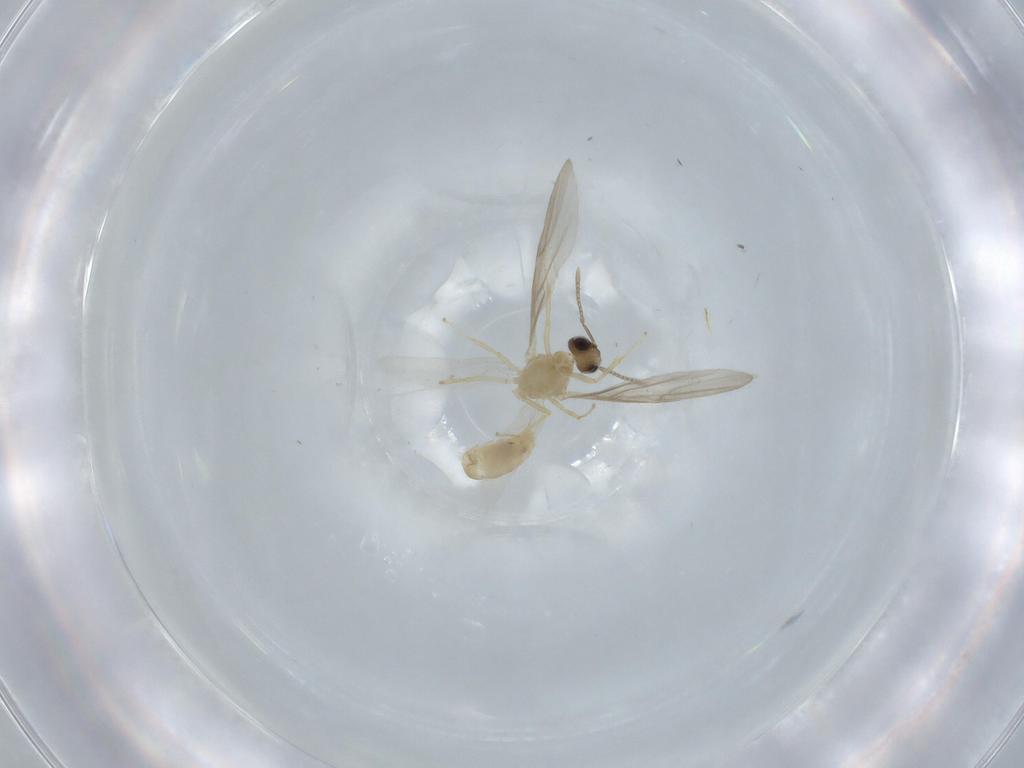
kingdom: Animalia
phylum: Arthropoda
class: Insecta
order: Hymenoptera
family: Formicidae
